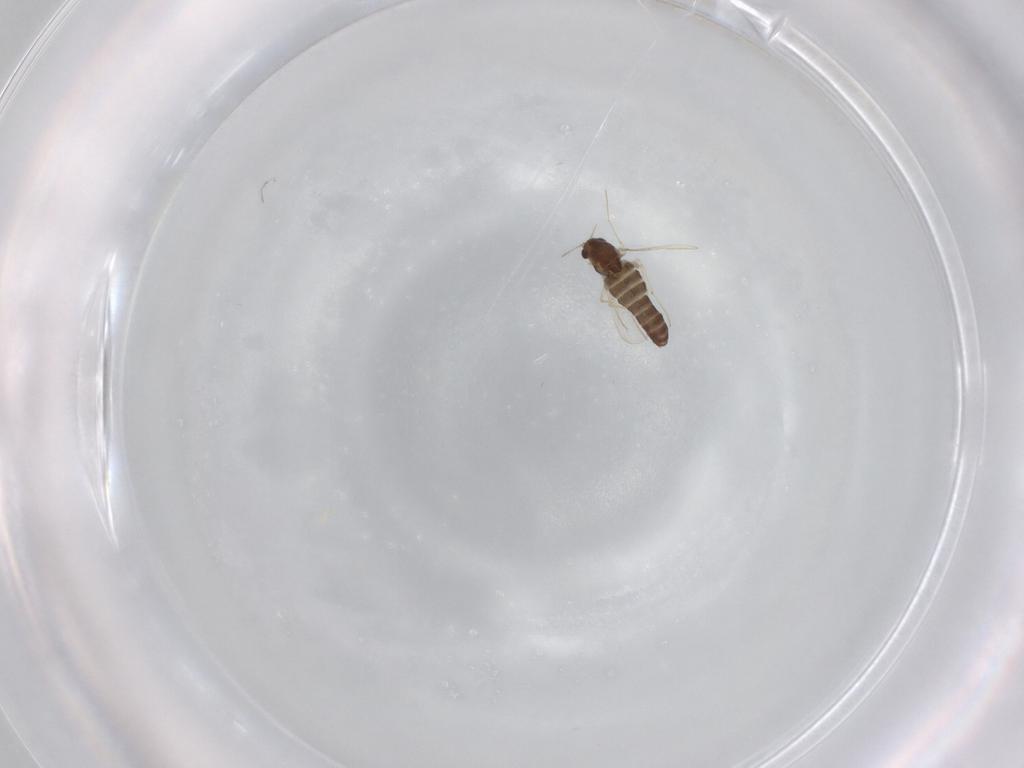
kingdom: Animalia
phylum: Arthropoda
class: Insecta
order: Diptera
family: Chironomidae
